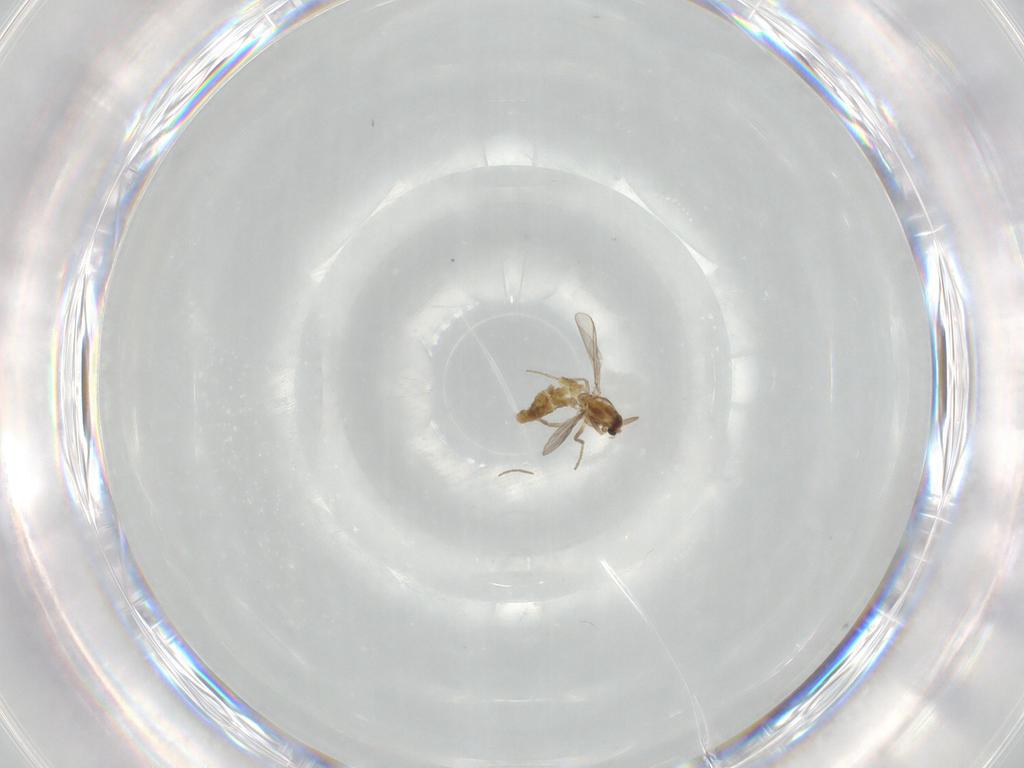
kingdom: Animalia
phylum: Arthropoda
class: Insecta
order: Diptera
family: Chironomidae
